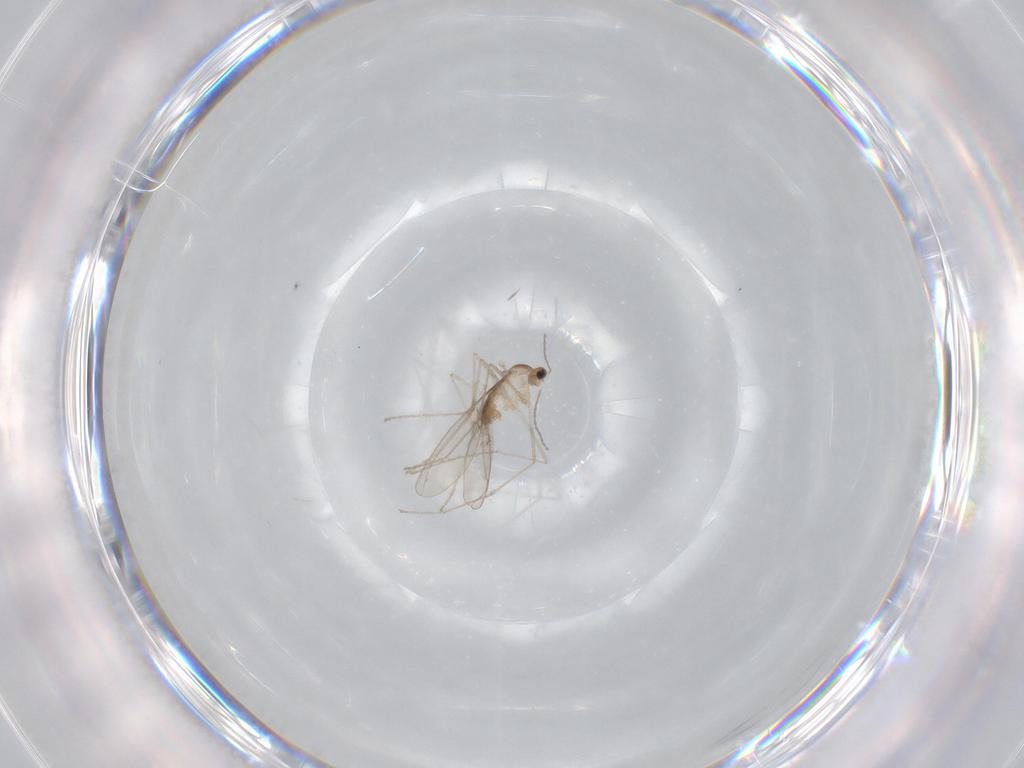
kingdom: Animalia
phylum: Arthropoda
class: Insecta
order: Diptera
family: Cecidomyiidae
